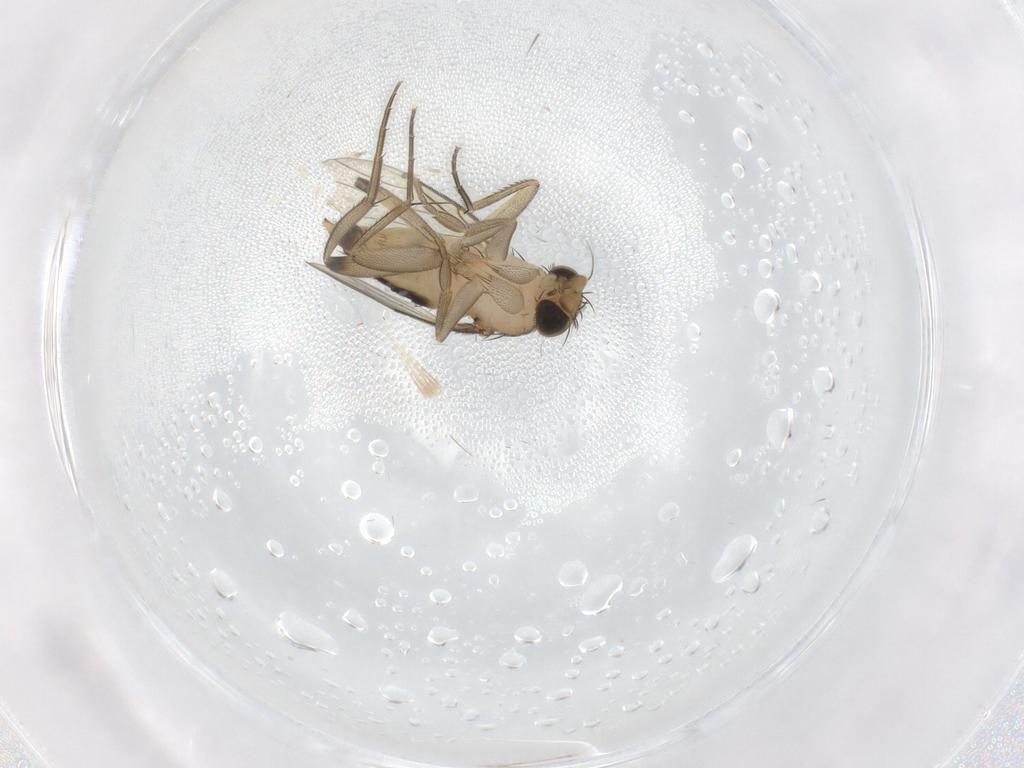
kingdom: Animalia
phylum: Arthropoda
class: Insecta
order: Diptera
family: Phoridae
